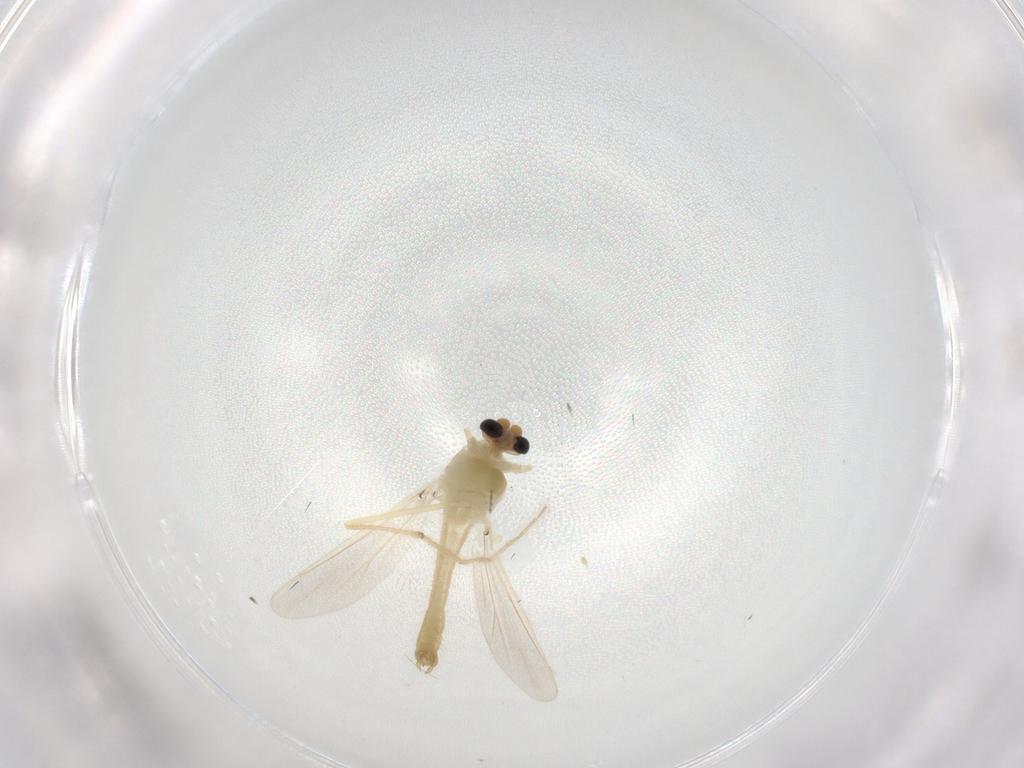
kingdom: Animalia
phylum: Arthropoda
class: Insecta
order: Diptera
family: Chironomidae
